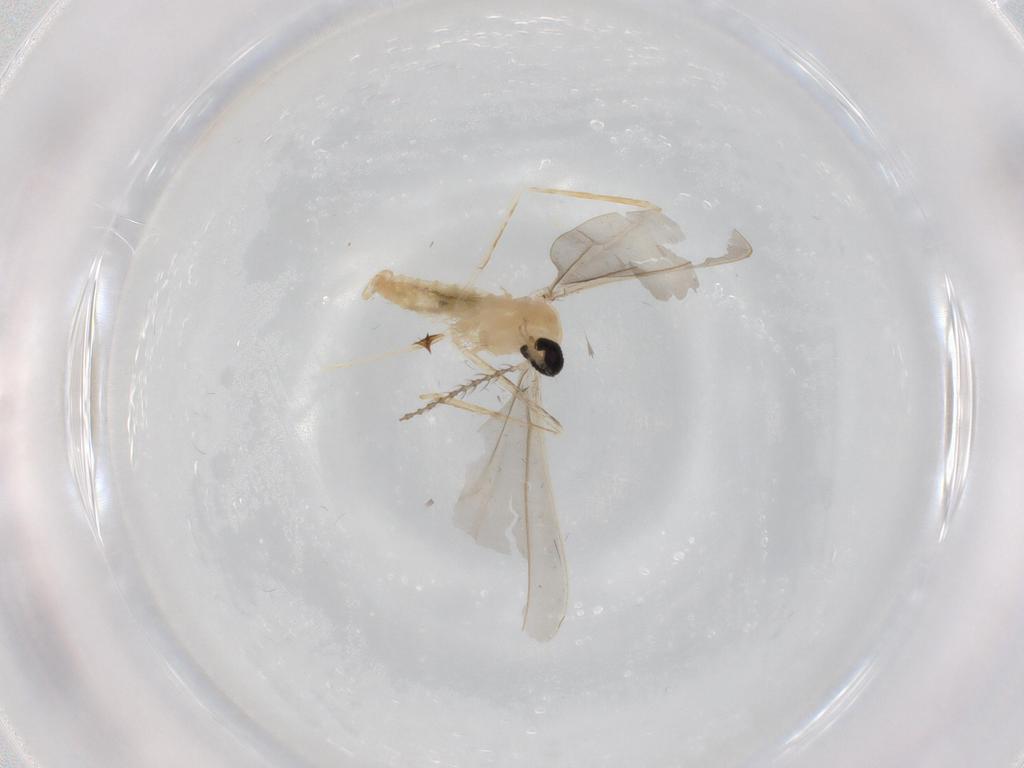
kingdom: Animalia
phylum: Arthropoda
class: Insecta
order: Diptera
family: Cecidomyiidae
